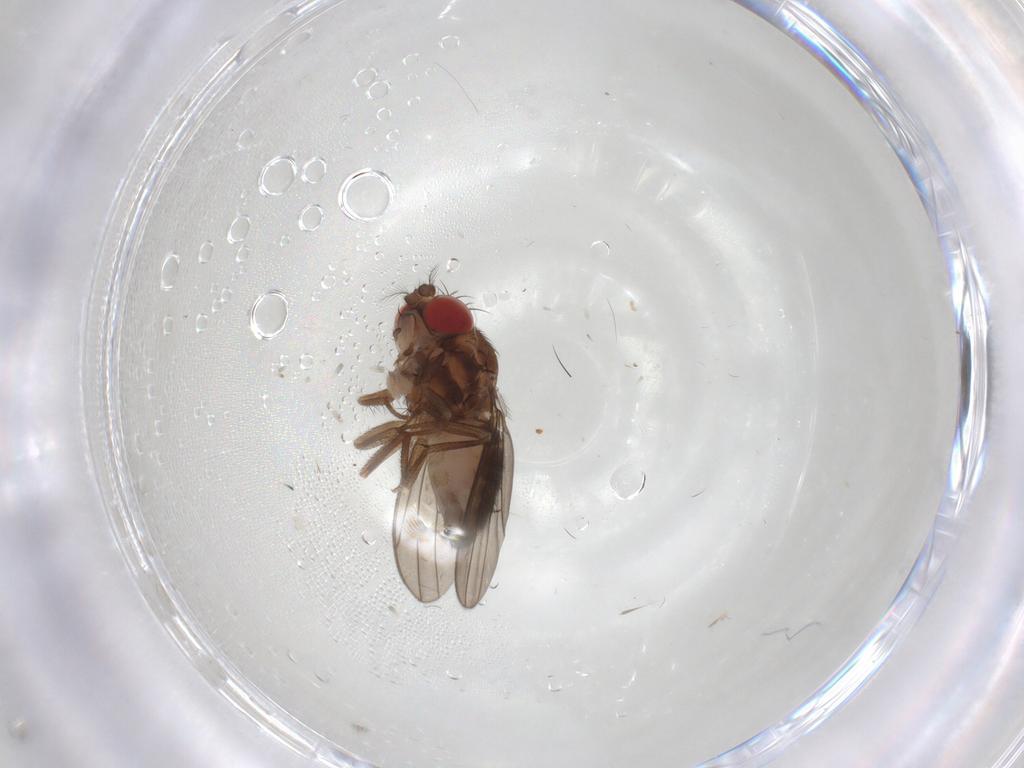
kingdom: Animalia
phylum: Arthropoda
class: Insecta
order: Diptera
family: Drosophilidae
